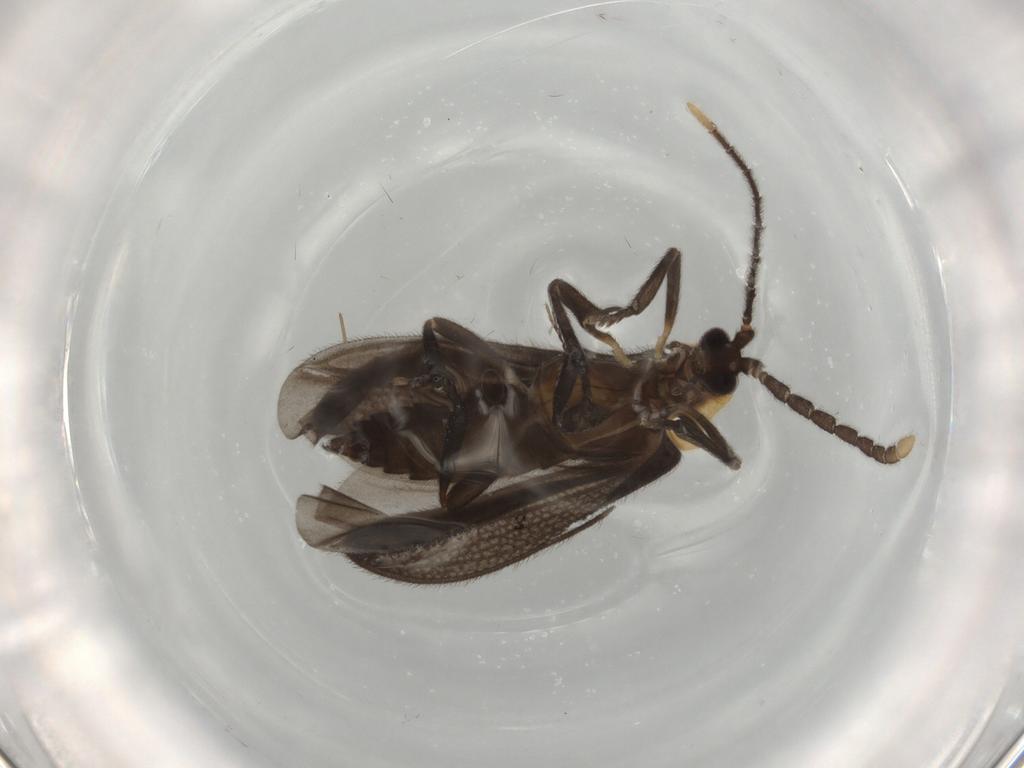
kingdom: Animalia
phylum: Arthropoda
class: Insecta
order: Coleoptera
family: Lycidae
